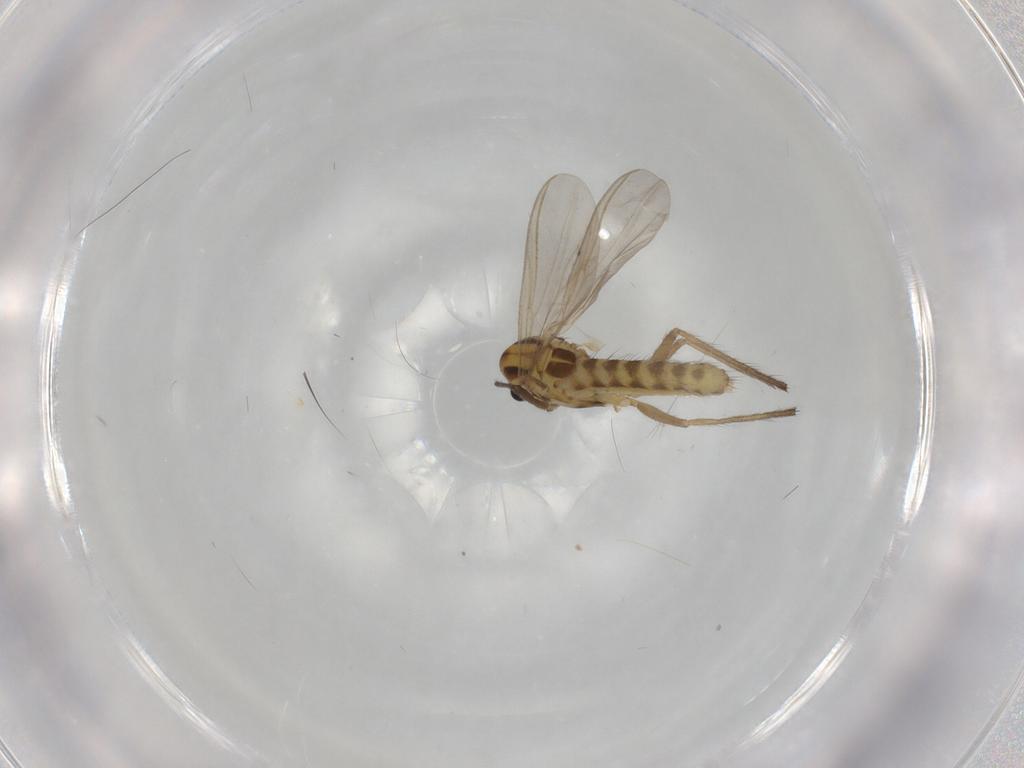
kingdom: Animalia
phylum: Arthropoda
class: Insecta
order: Diptera
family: Chironomidae
